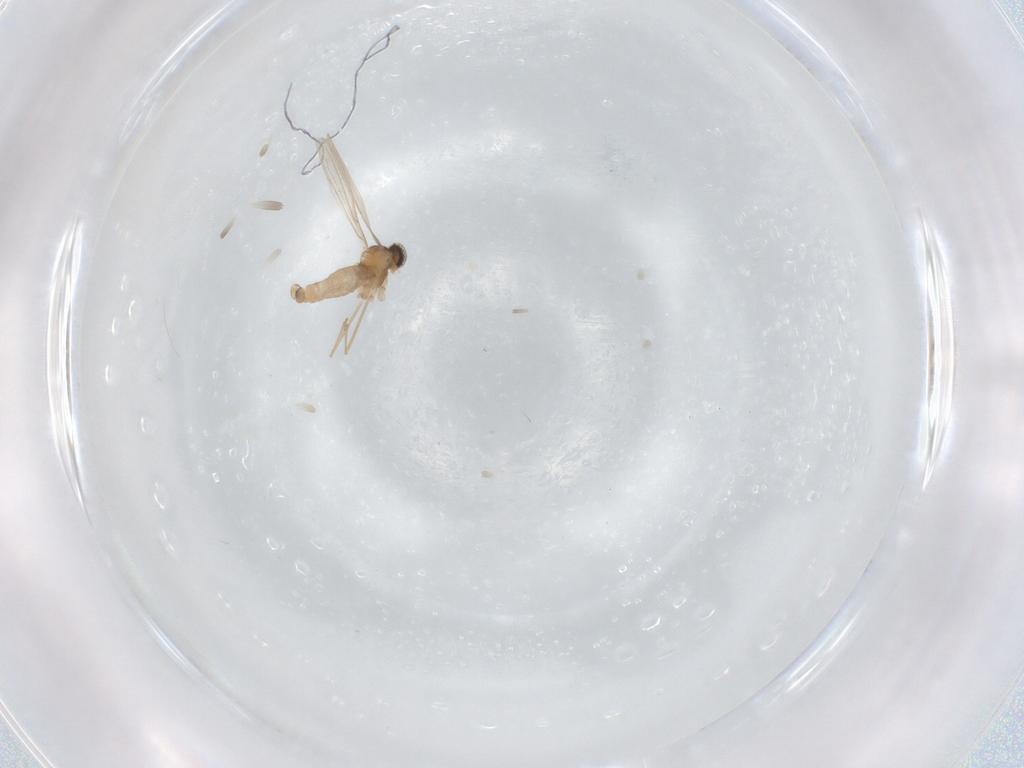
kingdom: Animalia
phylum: Arthropoda
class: Insecta
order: Diptera
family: Cecidomyiidae
